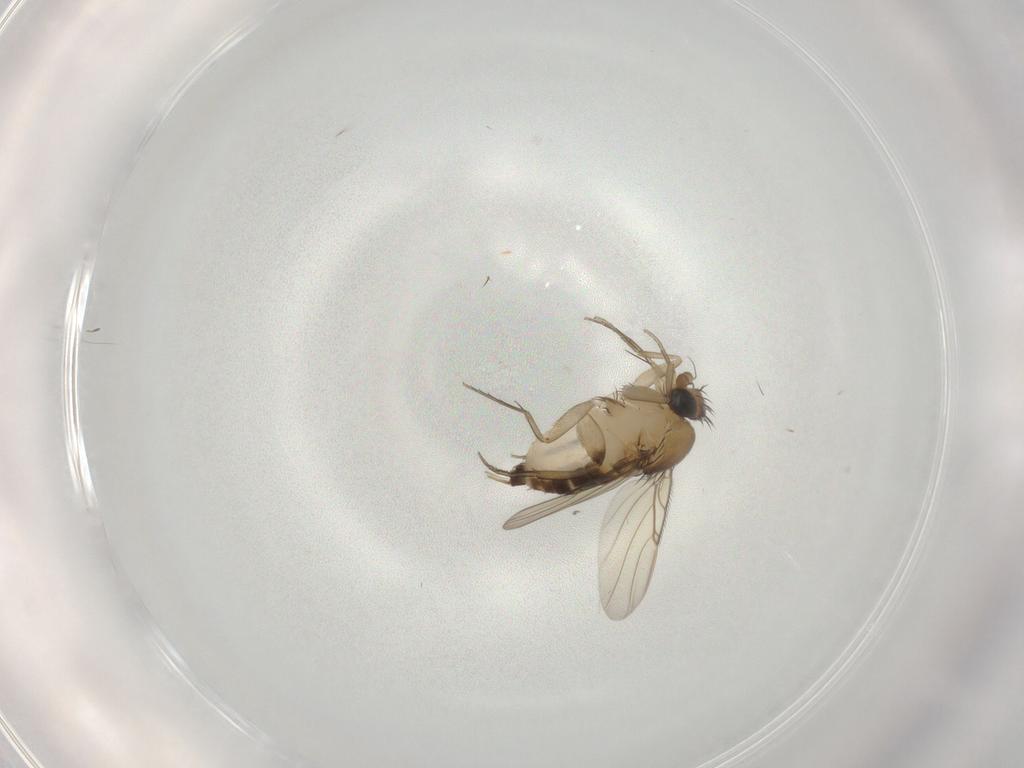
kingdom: Animalia
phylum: Arthropoda
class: Insecta
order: Diptera
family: Phoridae
